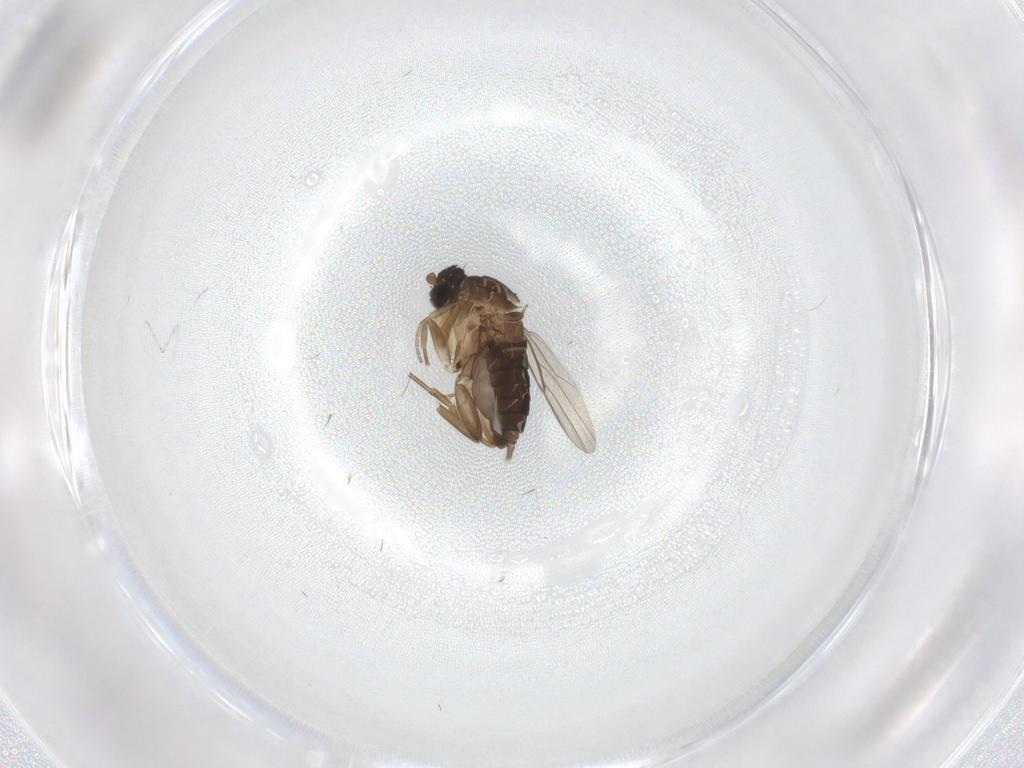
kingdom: Animalia
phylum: Arthropoda
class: Insecta
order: Diptera
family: Phoridae
